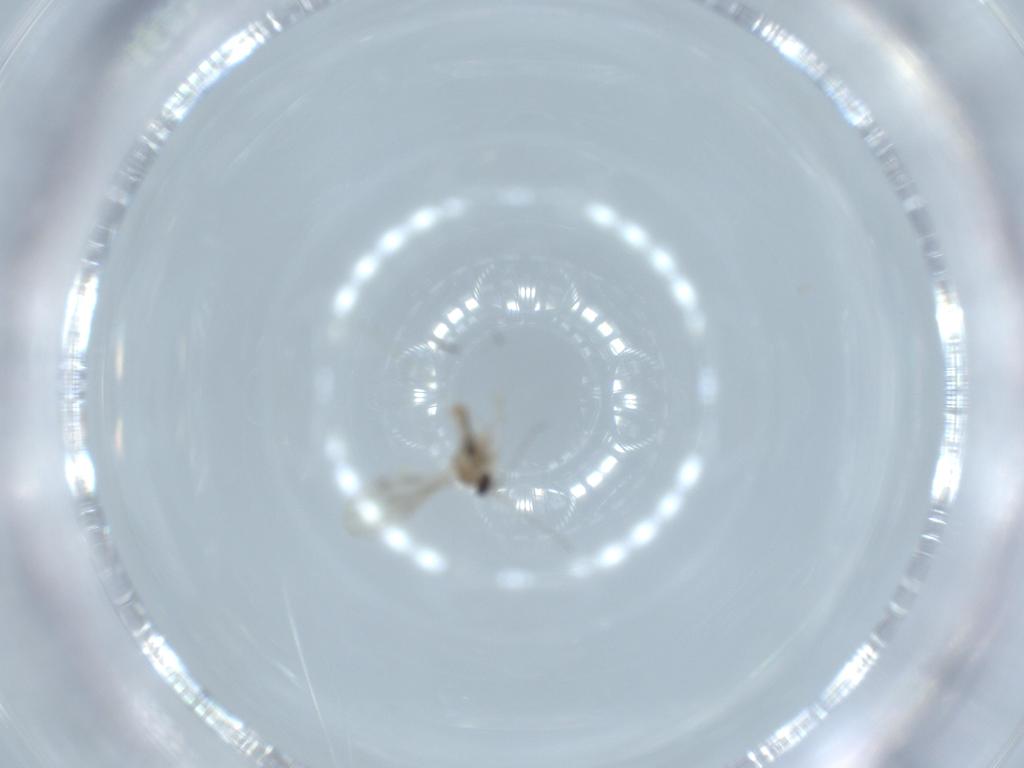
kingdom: Animalia
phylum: Arthropoda
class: Insecta
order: Diptera
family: Cecidomyiidae
